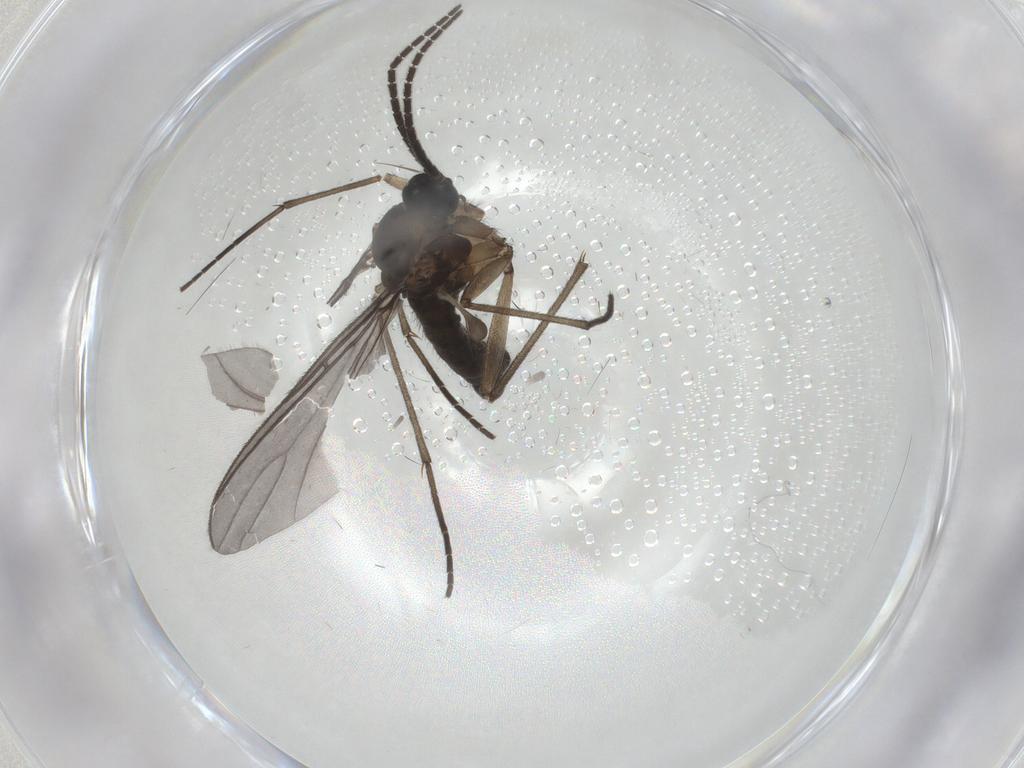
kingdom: Animalia
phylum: Arthropoda
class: Insecta
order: Diptera
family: Sciaridae
